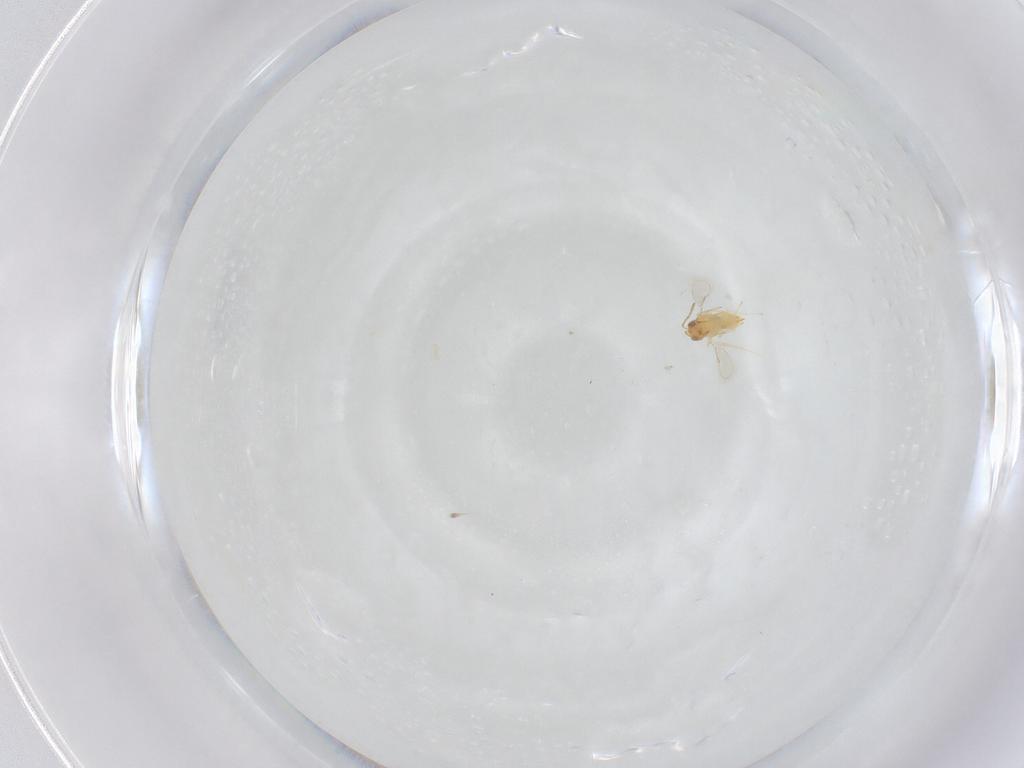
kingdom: Animalia
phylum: Arthropoda
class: Insecta
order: Hymenoptera
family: Aphelinidae
